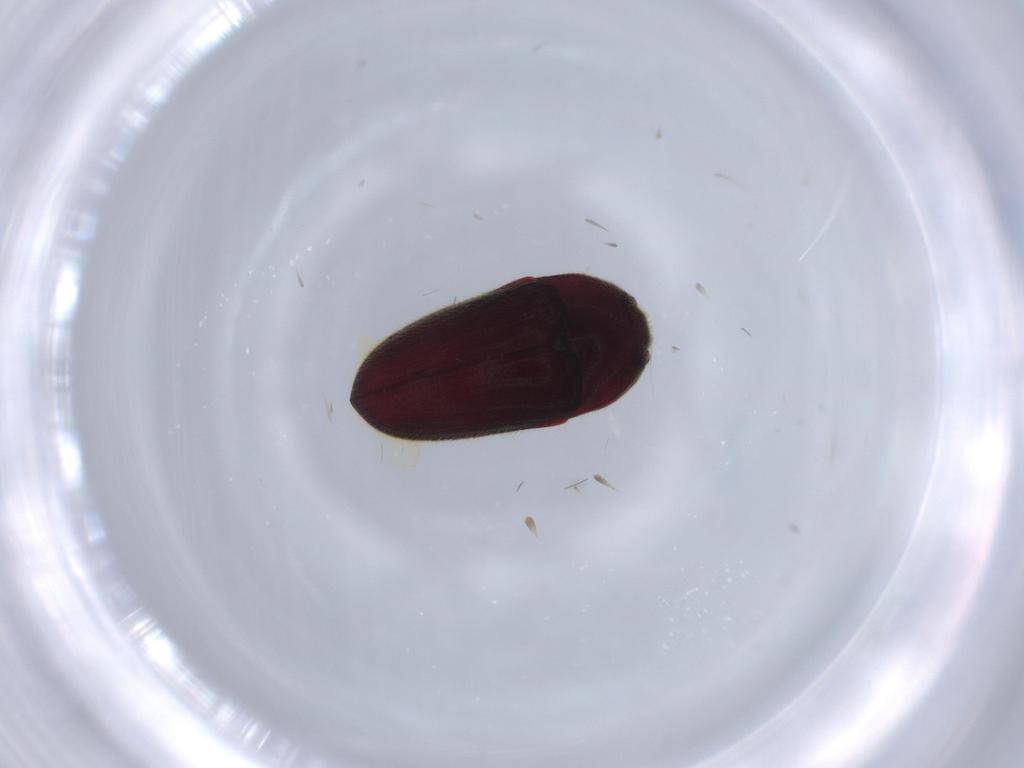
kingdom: Animalia
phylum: Arthropoda
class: Insecta
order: Coleoptera
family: Throscidae
